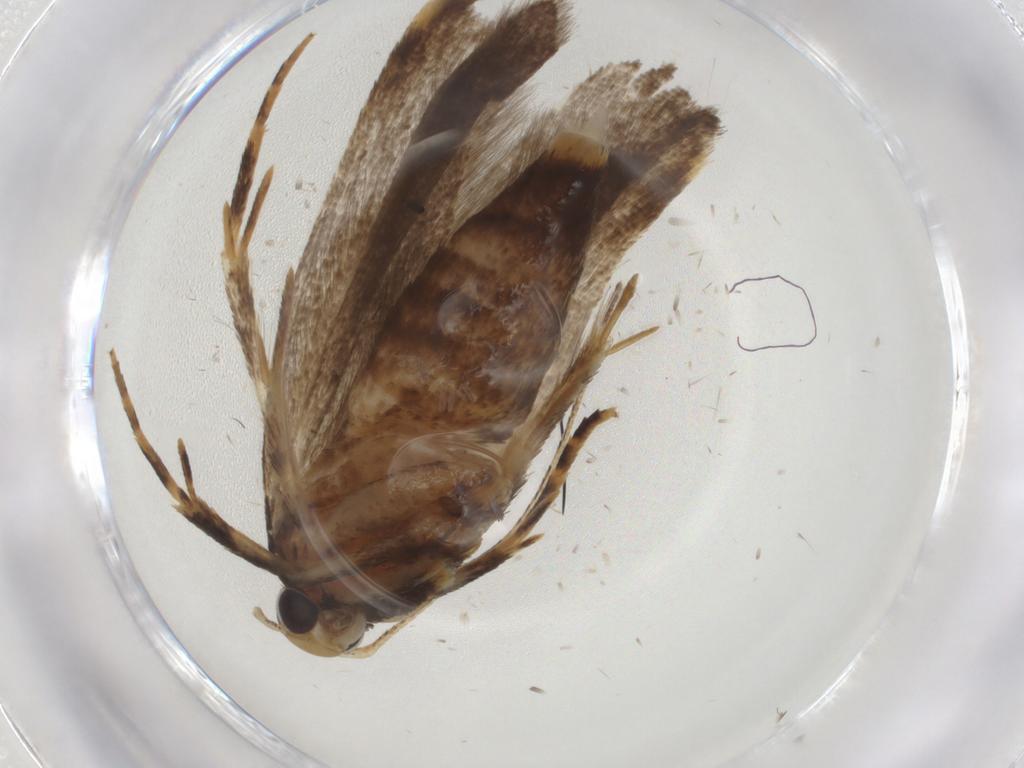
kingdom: Animalia
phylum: Arthropoda
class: Insecta
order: Lepidoptera
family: Gelechiidae
